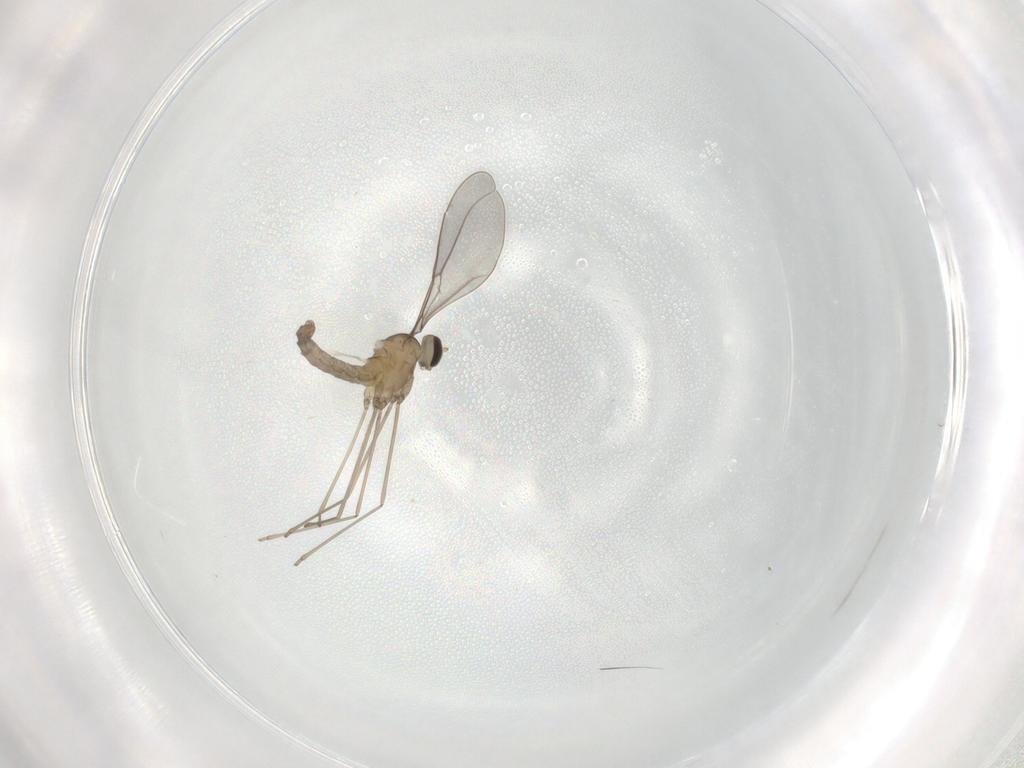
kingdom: Animalia
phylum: Arthropoda
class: Insecta
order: Diptera
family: Cecidomyiidae
